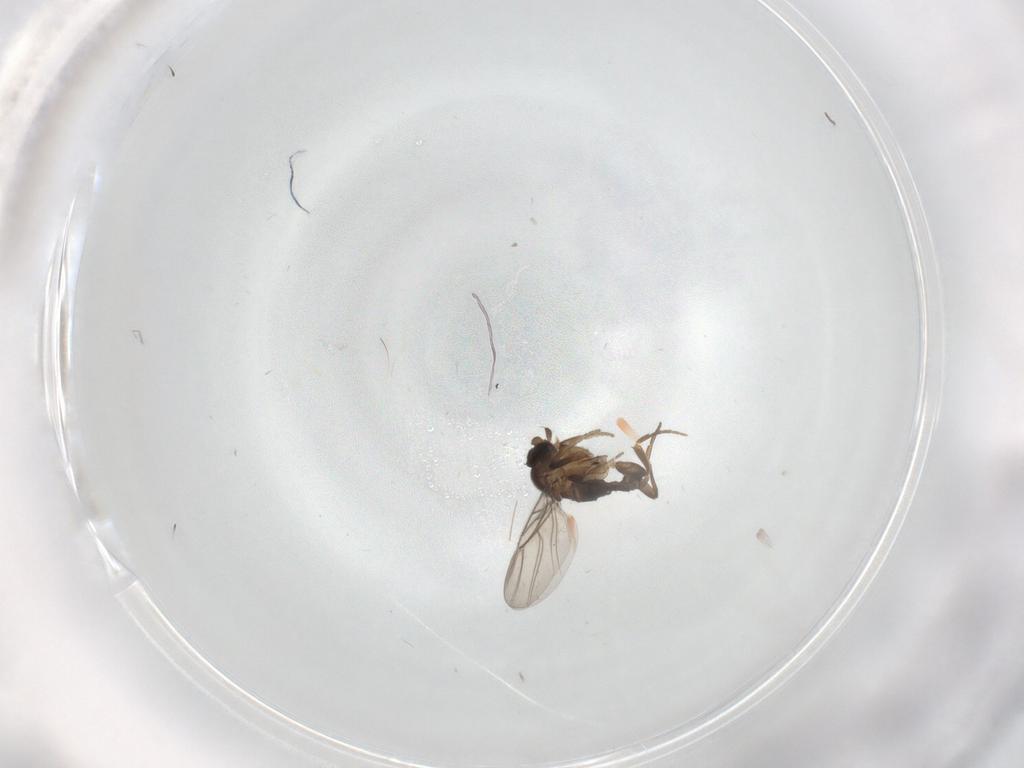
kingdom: Animalia
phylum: Arthropoda
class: Insecta
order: Diptera
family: Phoridae
